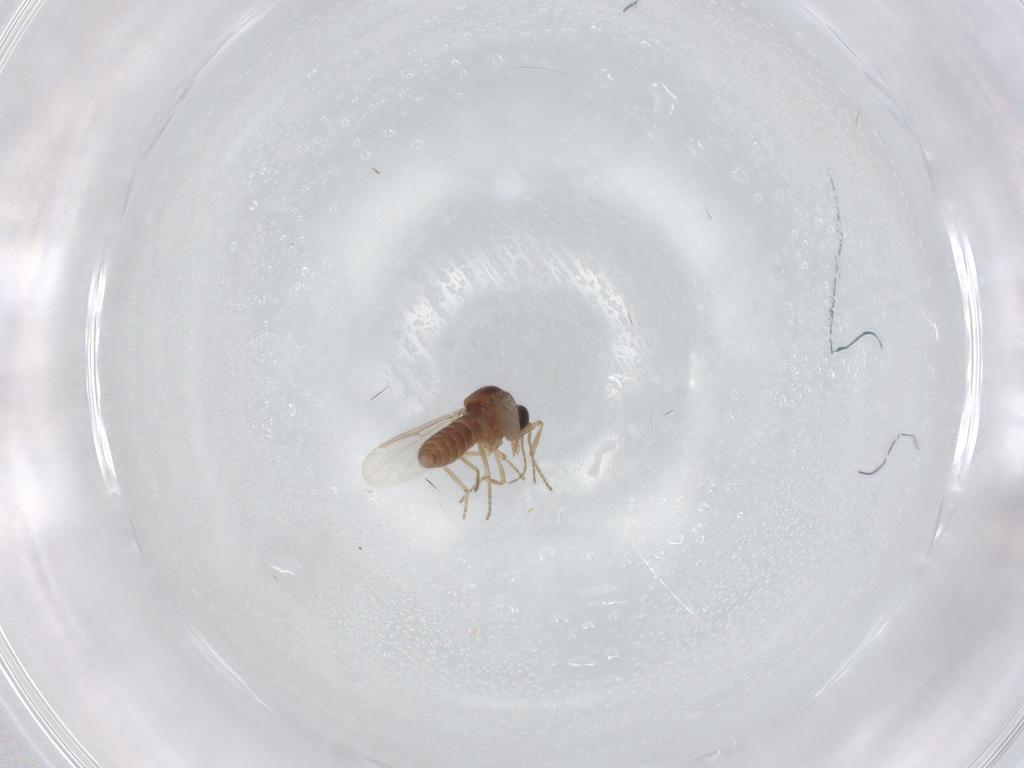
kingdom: Animalia
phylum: Arthropoda
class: Insecta
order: Diptera
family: Ceratopogonidae
